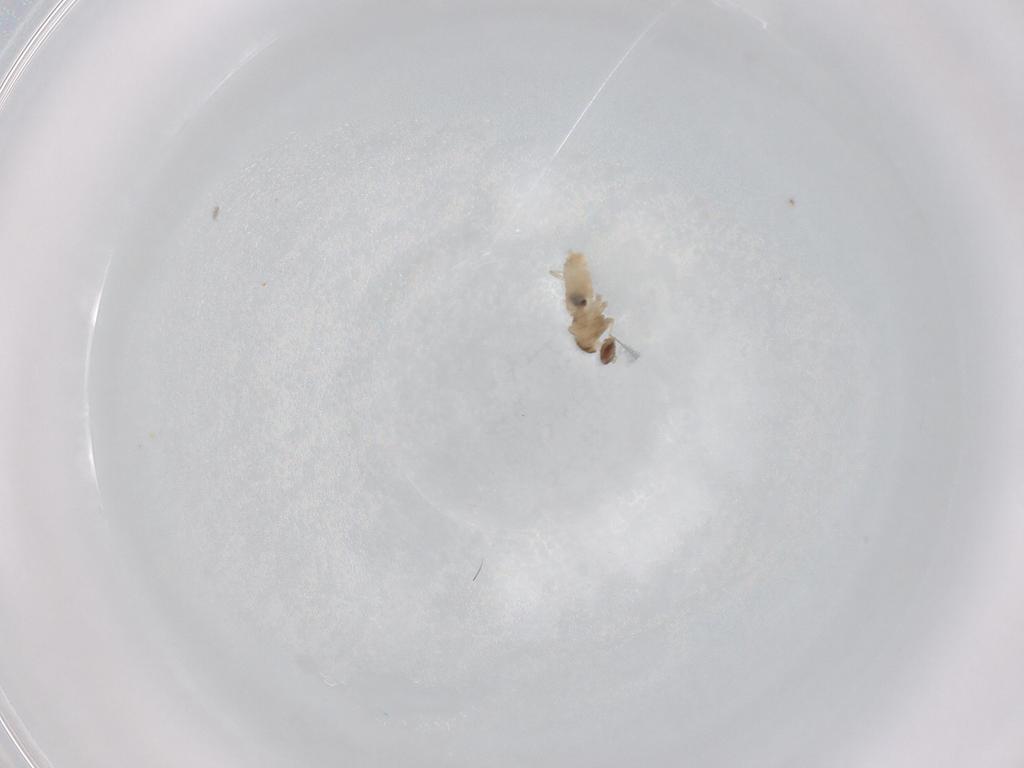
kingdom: Animalia
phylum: Arthropoda
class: Insecta
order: Diptera
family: Cecidomyiidae
